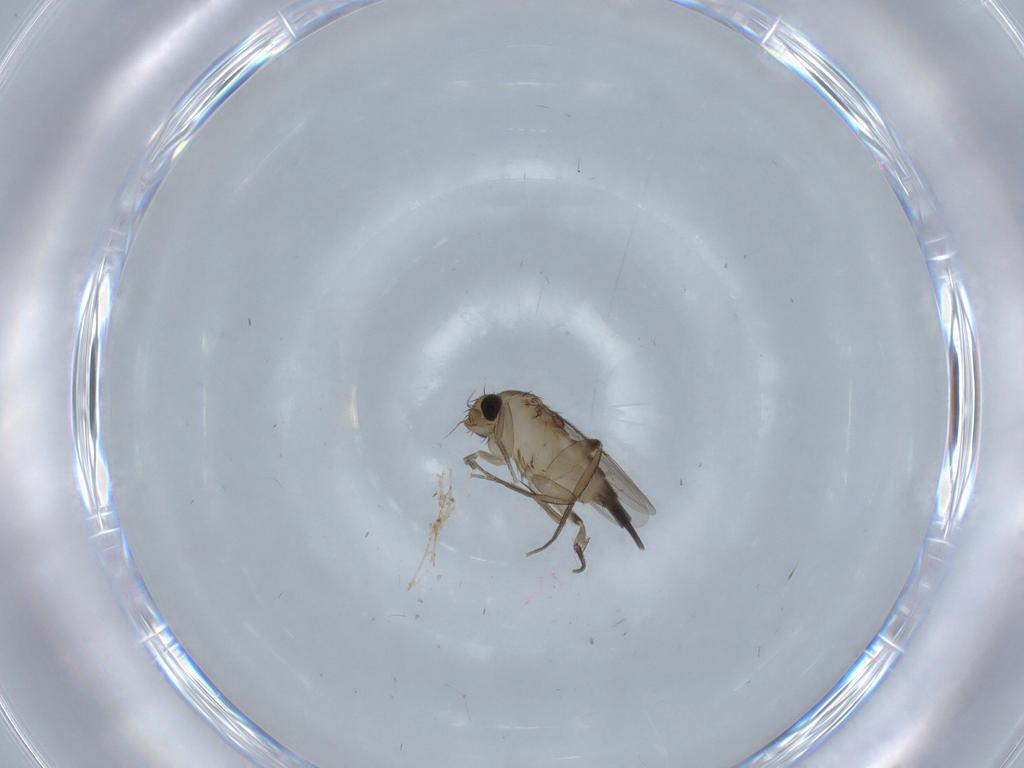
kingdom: Animalia
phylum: Arthropoda
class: Insecta
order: Diptera
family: Chironomidae
